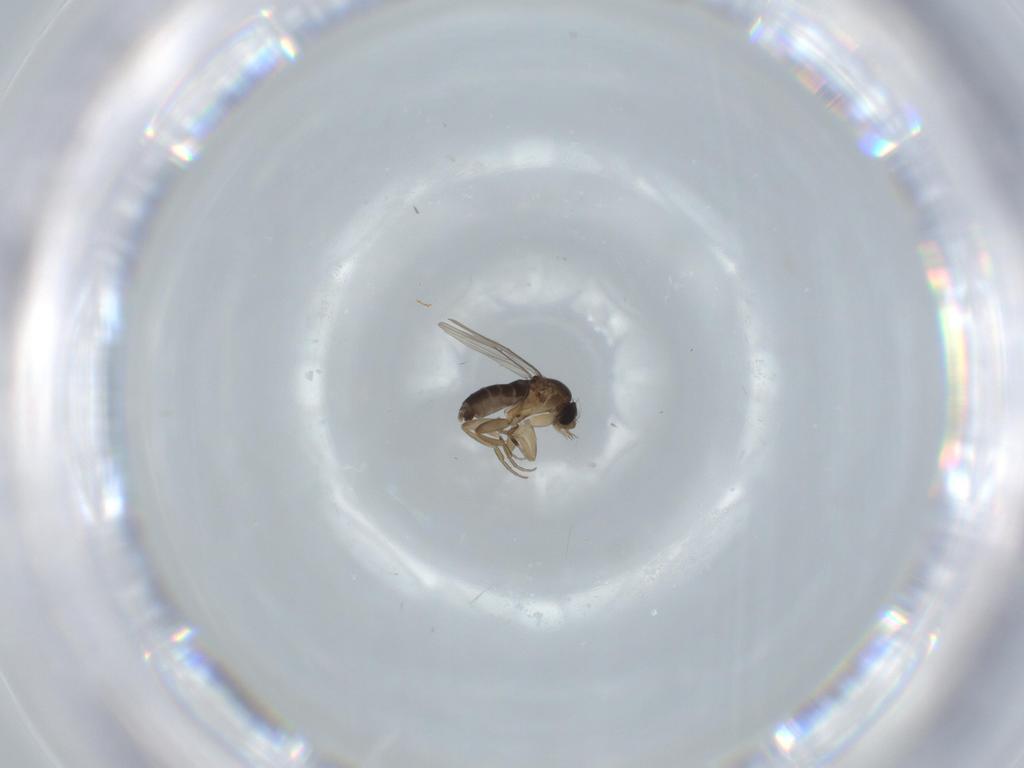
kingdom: Animalia
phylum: Arthropoda
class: Insecta
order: Diptera
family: Phoridae
